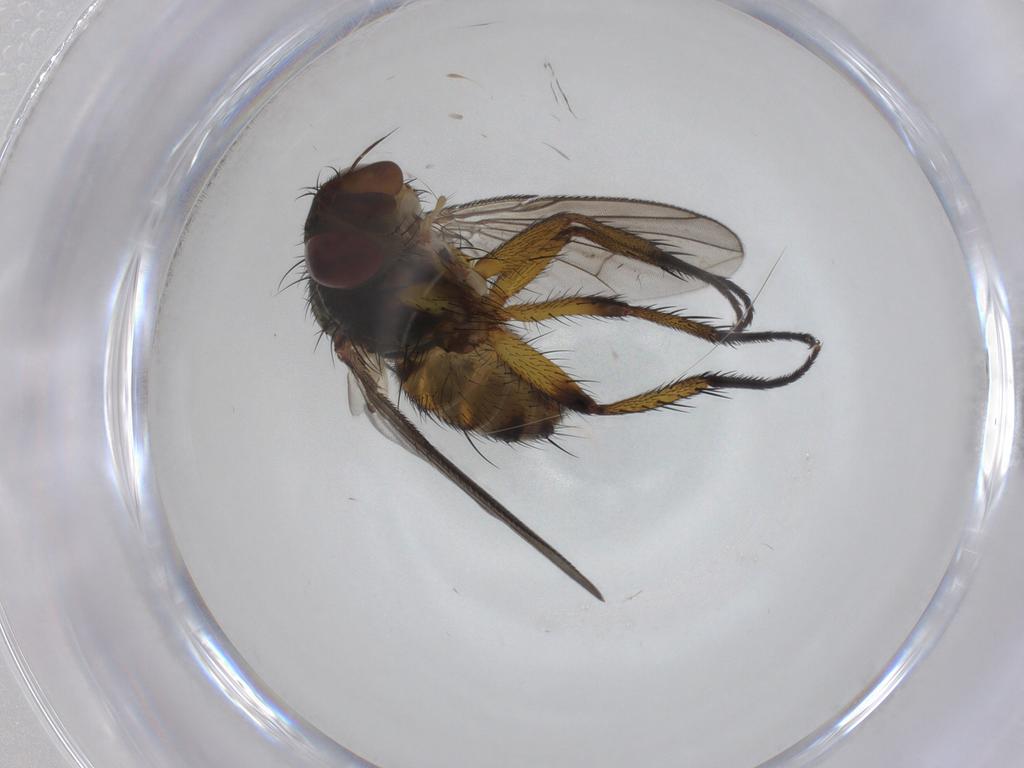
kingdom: Animalia
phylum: Arthropoda
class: Insecta
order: Diptera
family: Tachinidae
